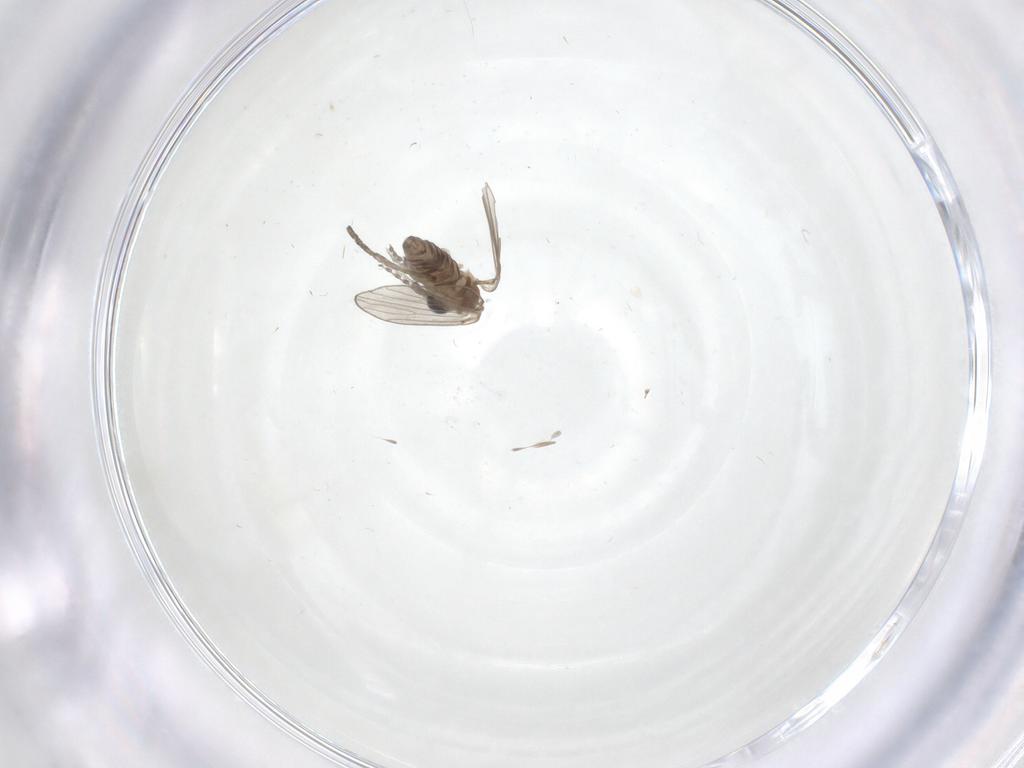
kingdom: Animalia
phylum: Arthropoda
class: Insecta
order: Diptera
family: Psychodidae
